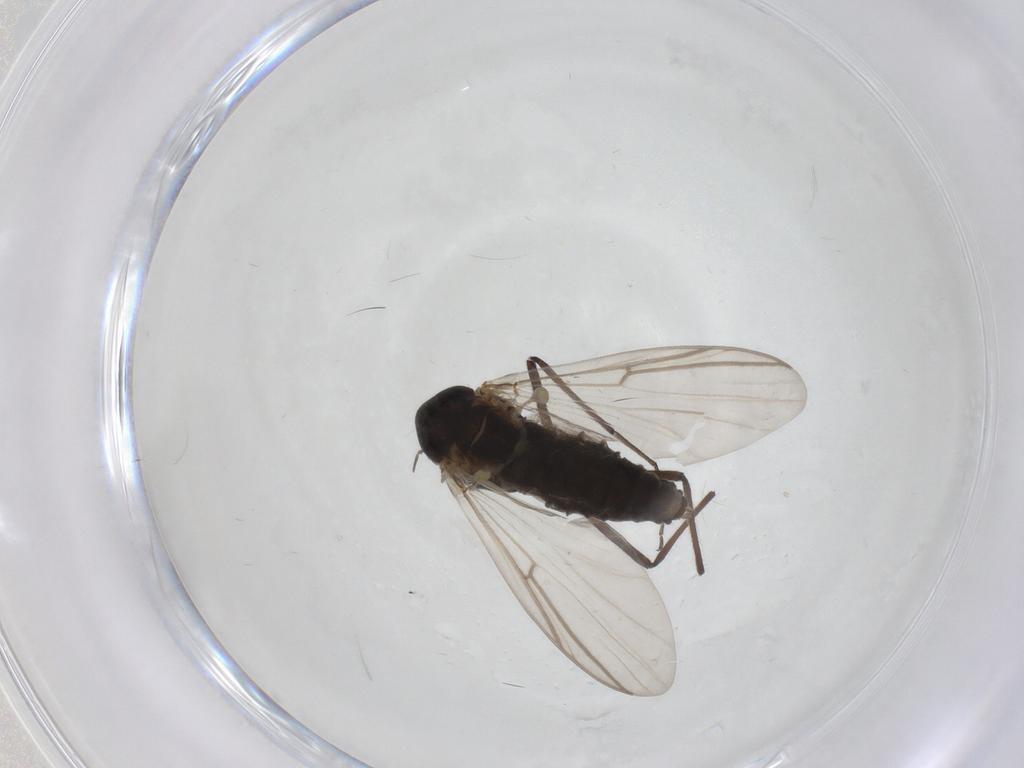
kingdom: Animalia
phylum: Arthropoda
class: Insecta
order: Diptera
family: Chironomidae
